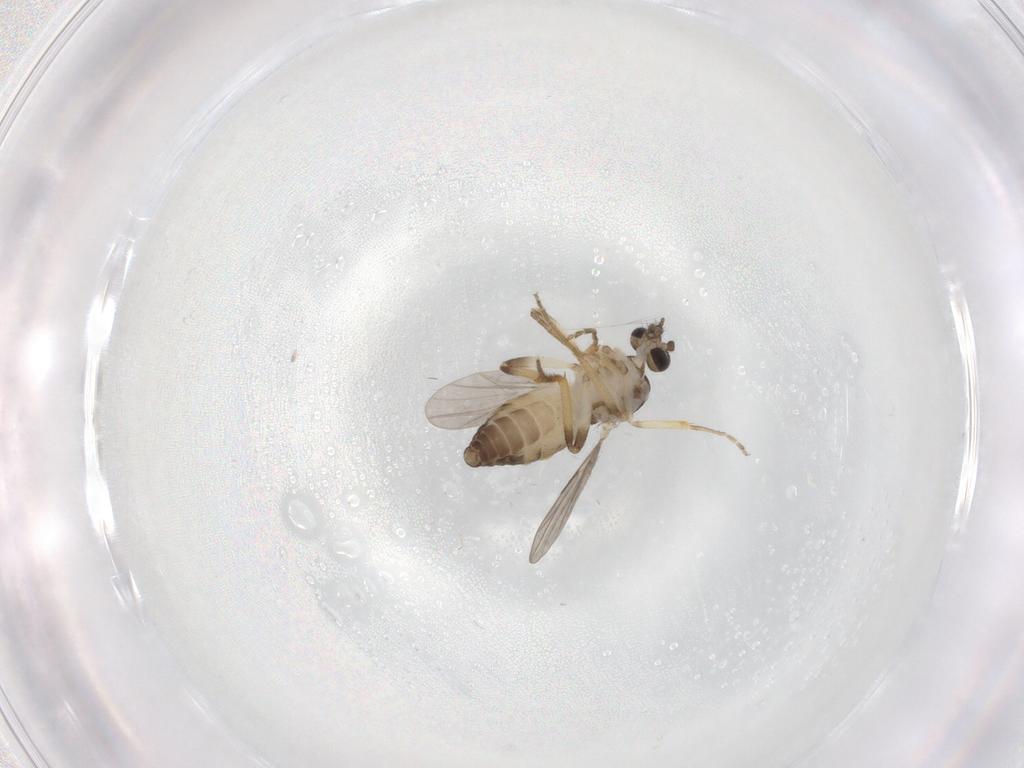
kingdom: Animalia
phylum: Arthropoda
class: Insecta
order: Diptera
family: Ceratopogonidae
